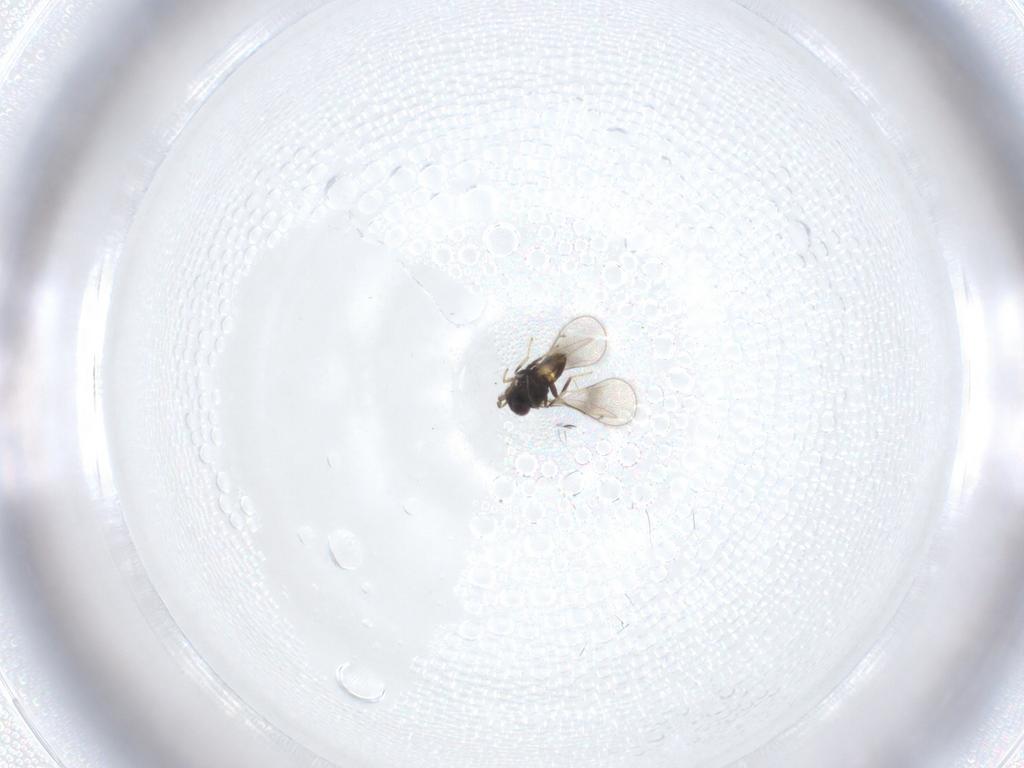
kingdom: Animalia
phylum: Arthropoda
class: Insecta
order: Hymenoptera
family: Eulophidae
